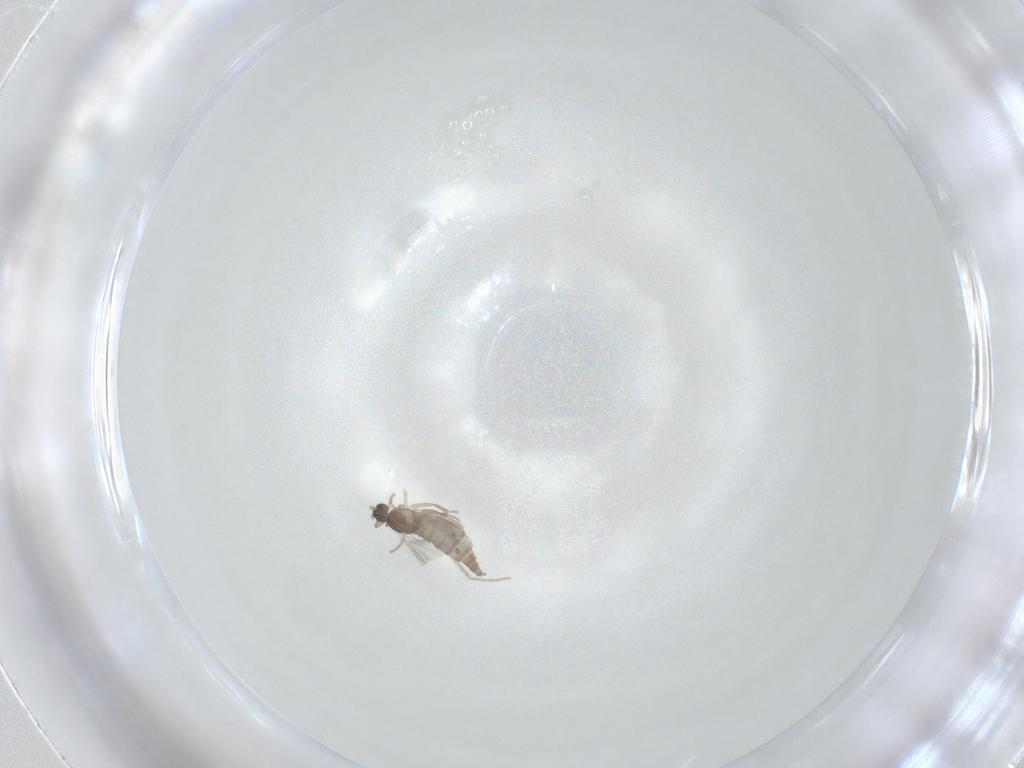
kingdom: Animalia
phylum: Arthropoda
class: Insecta
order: Diptera
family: Cecidomyiidae
